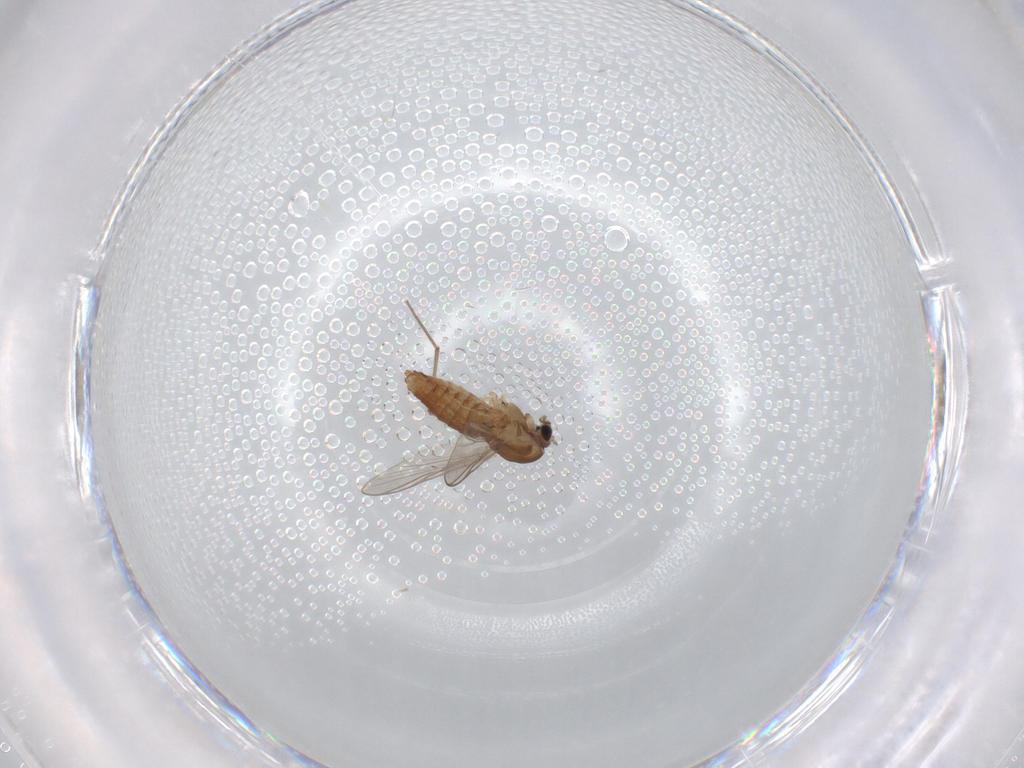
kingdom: Animalia
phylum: Arthropoda
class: Insecta
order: Diptera
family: Chironomidae
